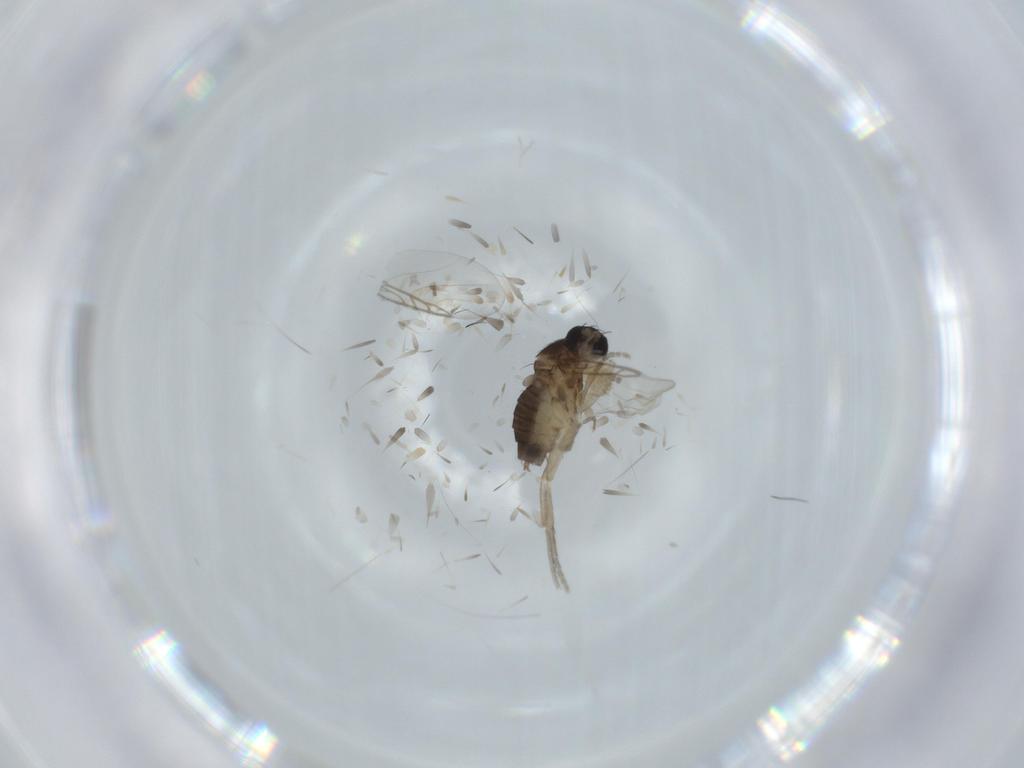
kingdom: Animalia
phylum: Arthropoda
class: Insecta
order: Diptera
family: Phoridae
